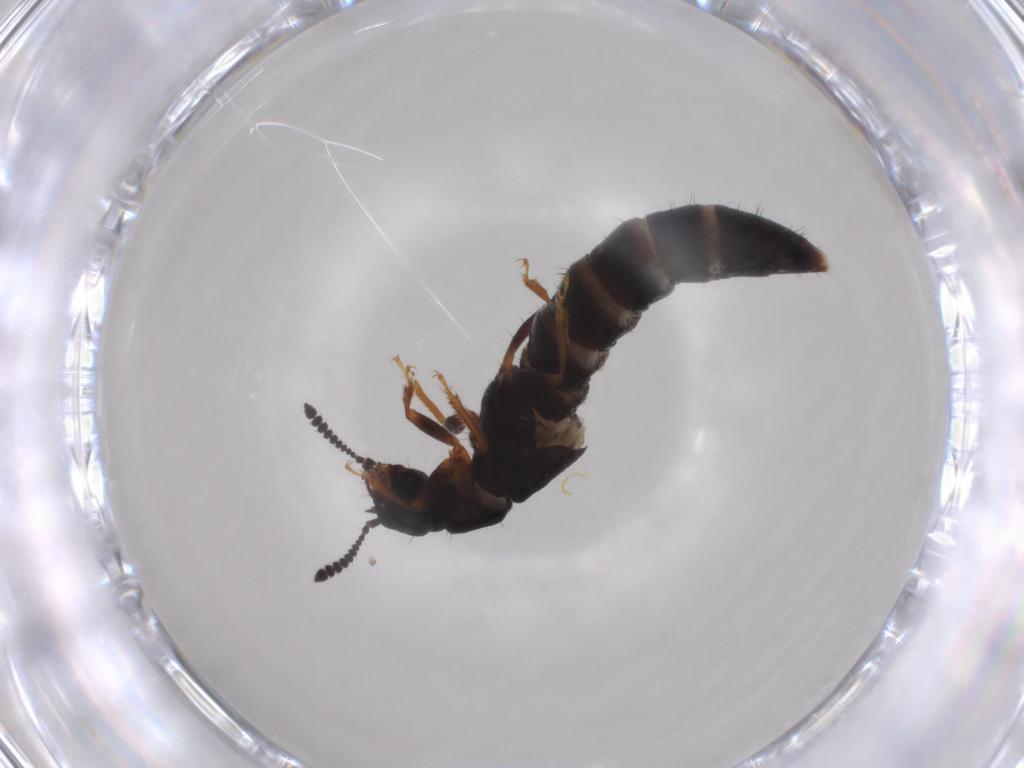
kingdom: Animalia
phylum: Arthropoda
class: Insecta
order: Coleoptera
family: Staphylinidae
